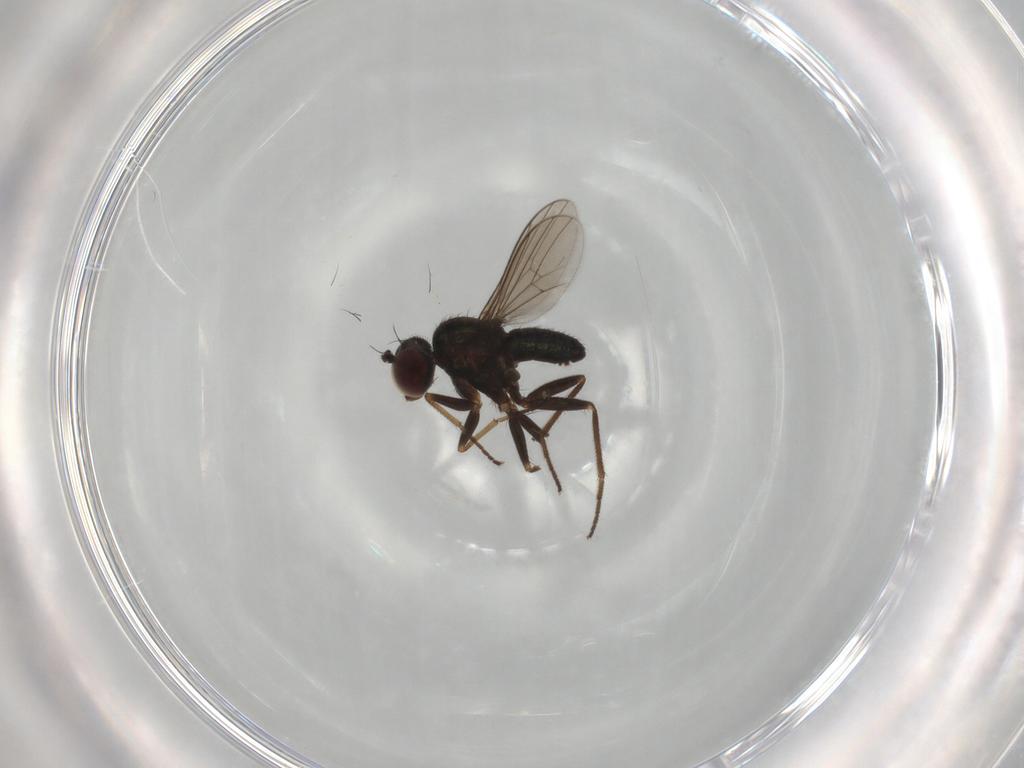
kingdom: Animalia
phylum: Arthropoda
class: Insecta
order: Diptera
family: Dolichopodidae
